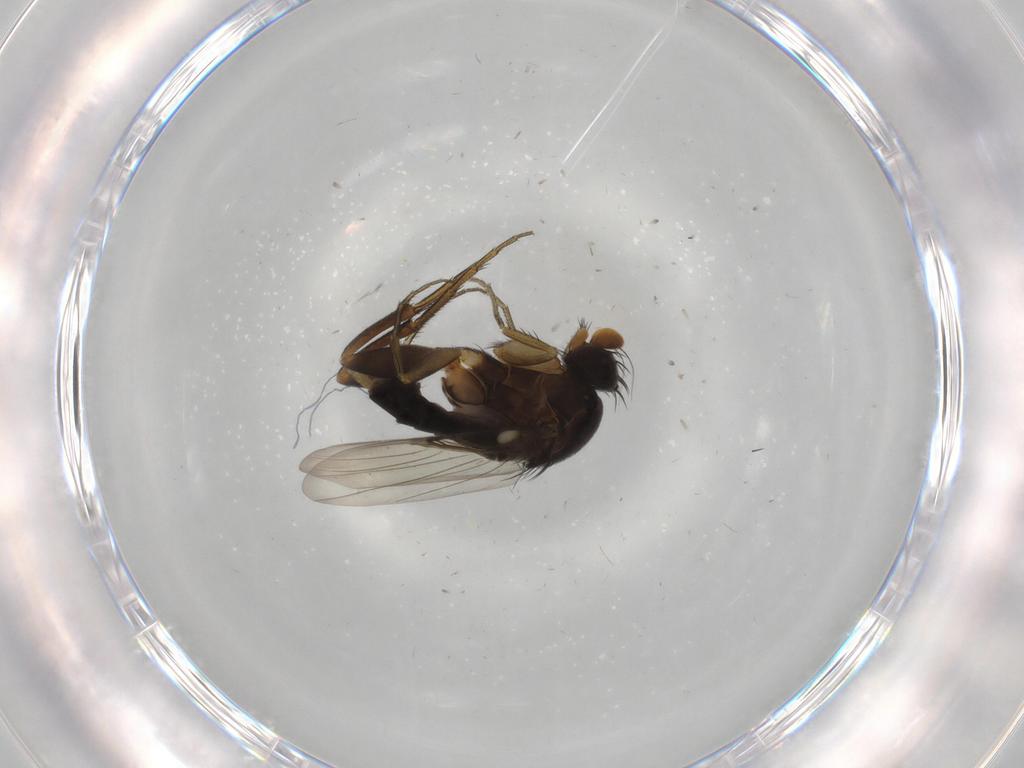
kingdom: Animalia
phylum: Arthropoda
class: Insecta
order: Diptera
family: Phoridae
